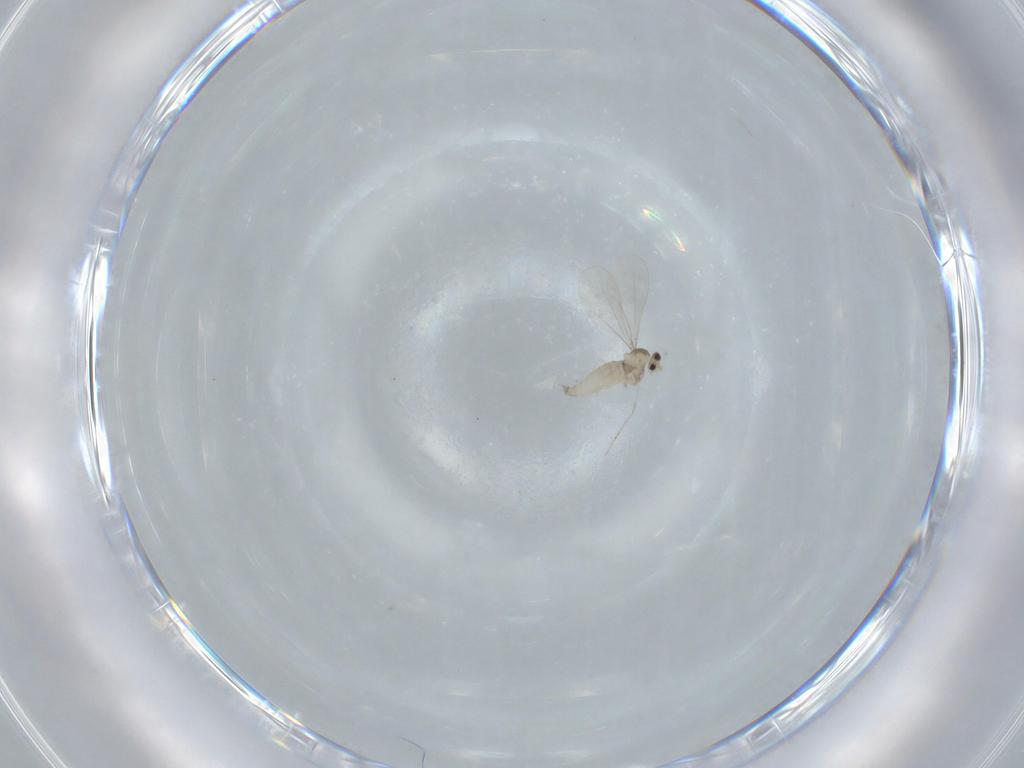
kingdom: Animalia
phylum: Arthropoda
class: Insecta
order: Diptera
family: Cecidomyiidae
